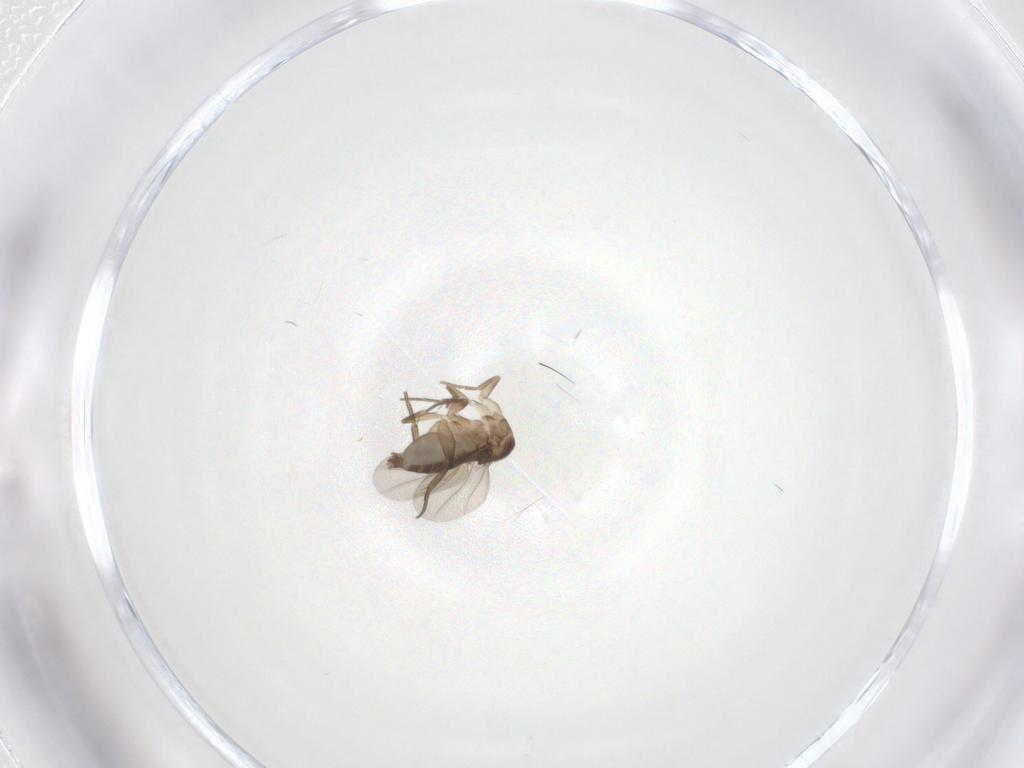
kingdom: Animalia
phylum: Arthropoda
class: Insecta
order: Diptera
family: Phoridae
